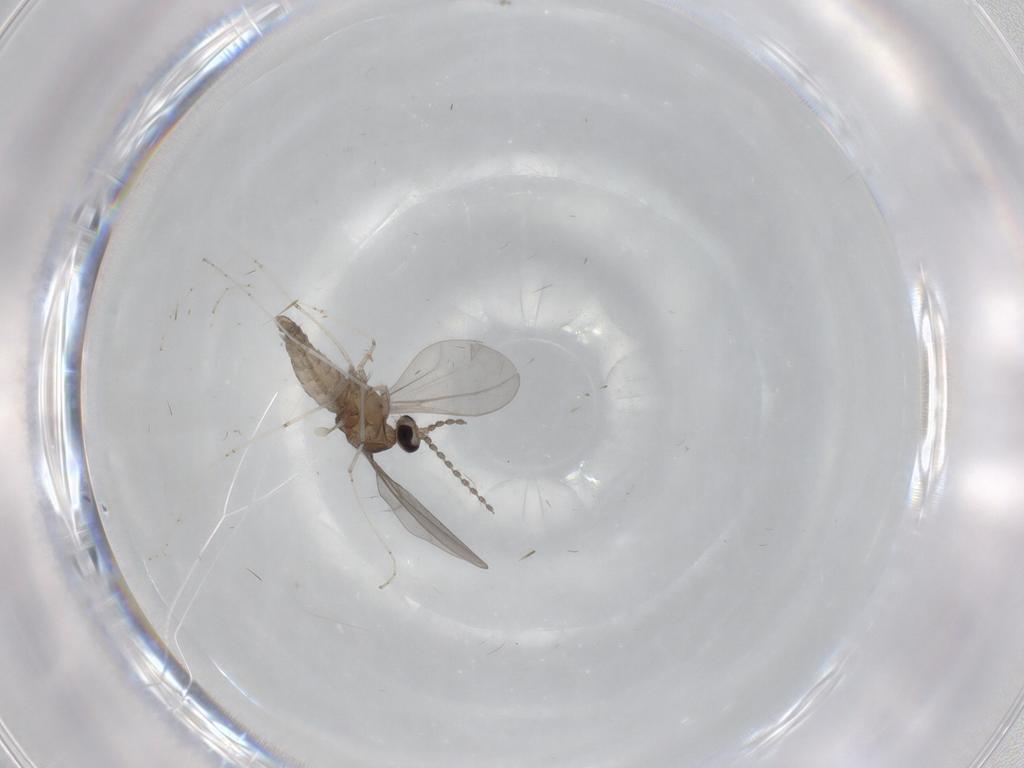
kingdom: Animalia
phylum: Arthropoda
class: Insecta
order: Diptera
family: Cecidomyiidae
